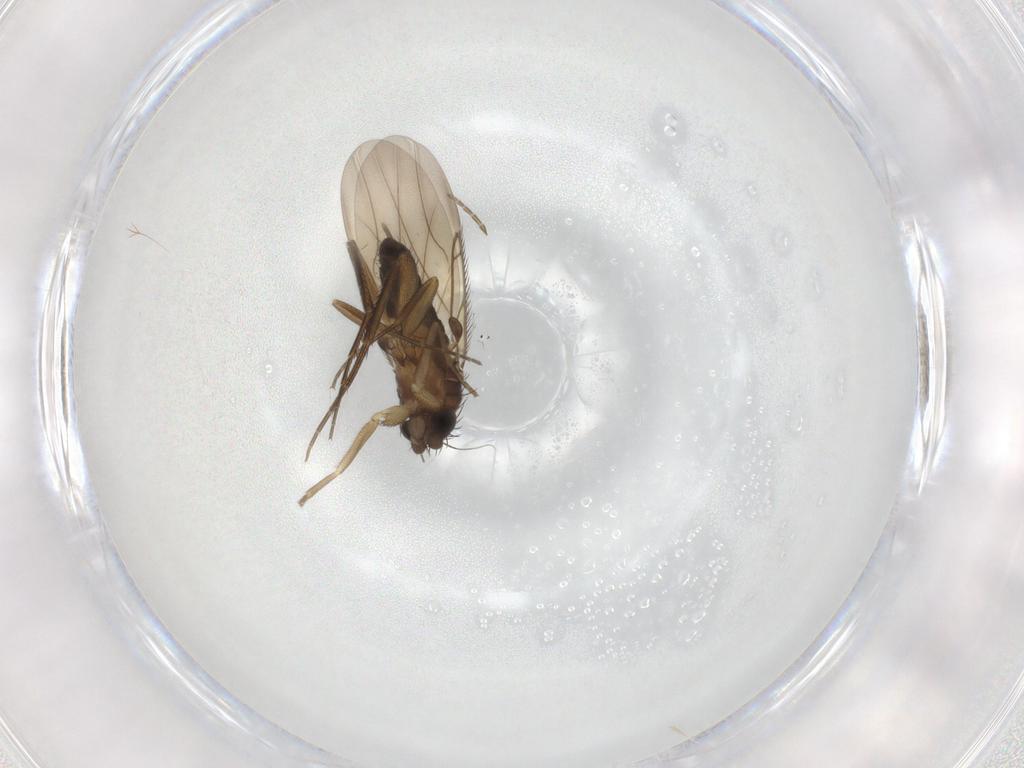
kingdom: Animalia
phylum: Arthropoda
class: Insecta
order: Diptera
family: Phoridae
